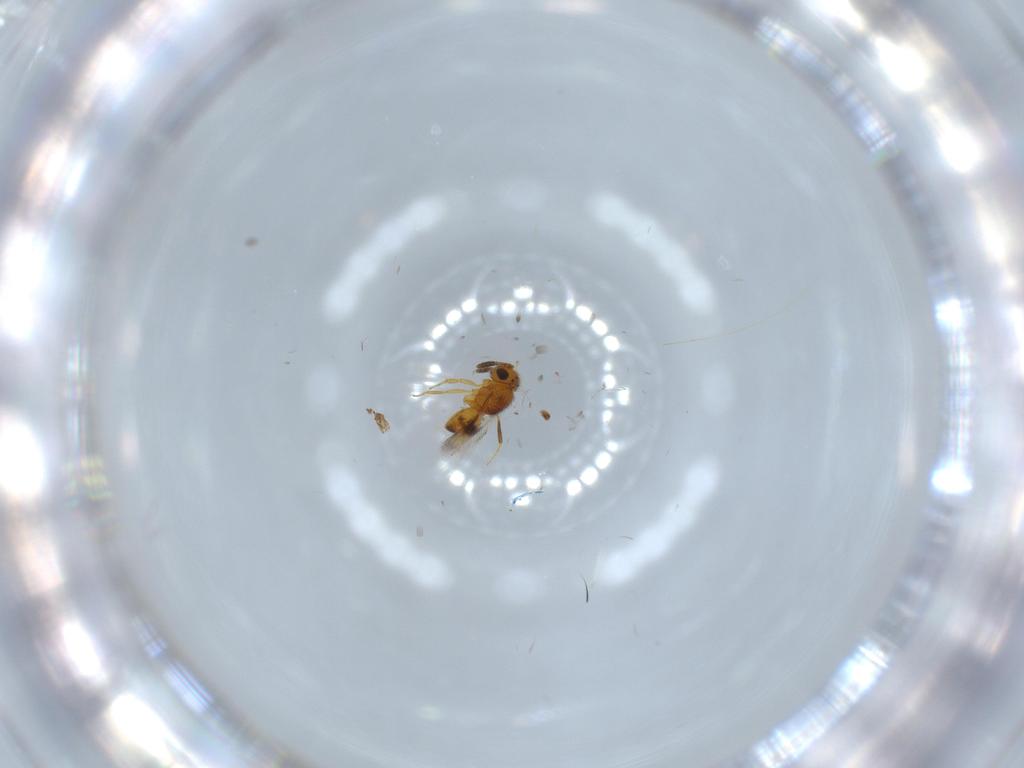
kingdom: Animalia
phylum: Arthropoda
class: Insecta
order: Hymenoptera
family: Scelionidae
